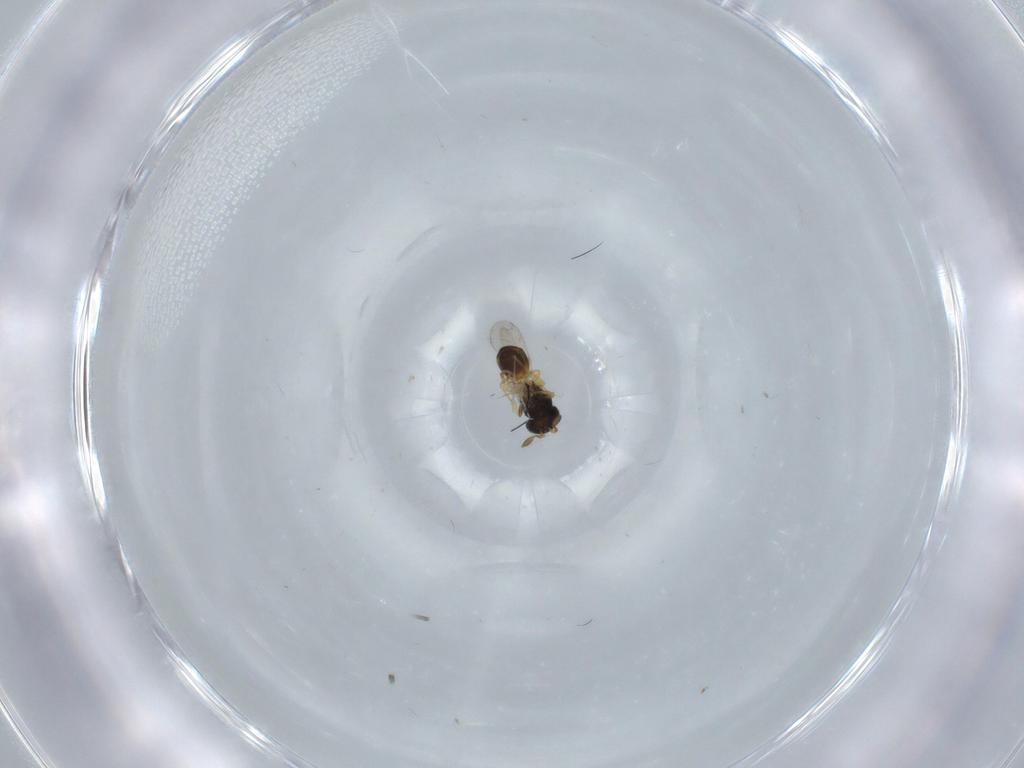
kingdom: Animalia
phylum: Arthropoda
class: Insecta
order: Hymenoptera
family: Scelionidae
